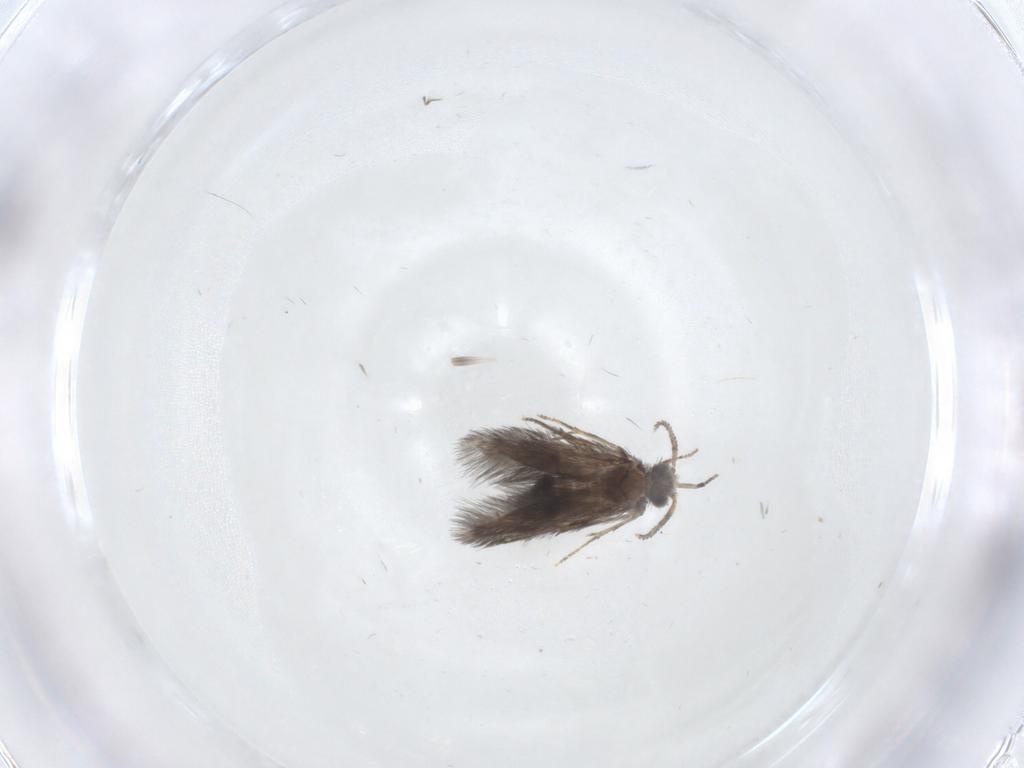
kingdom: Animalia
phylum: Arthropoda
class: Insecta
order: Trichoptera
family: Hydroptilidae
